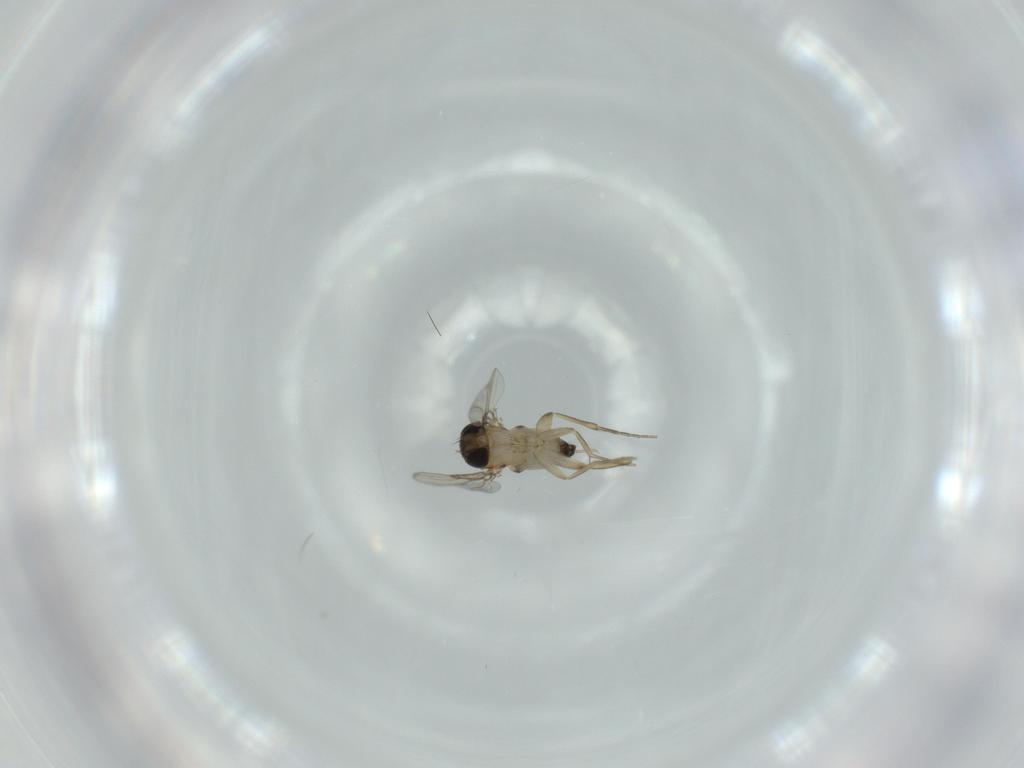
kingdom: Animalia
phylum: Arthropoda
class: Insecta
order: Diptera
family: Phoridae
